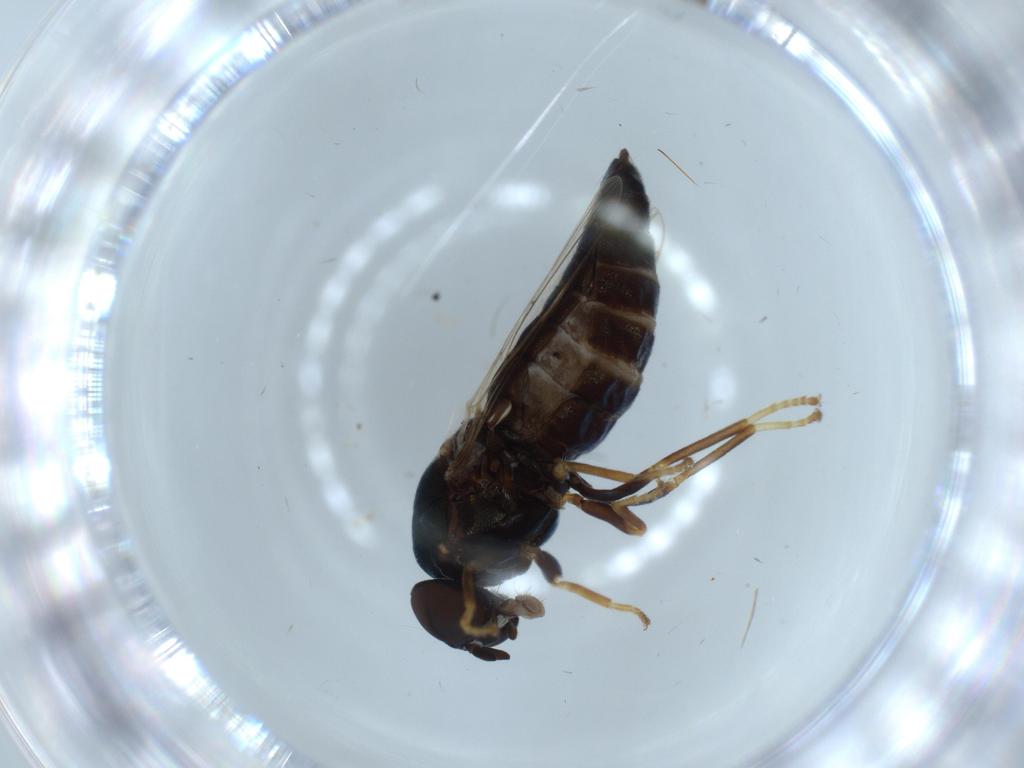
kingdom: Animalia
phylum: Arthropoda
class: Insecta
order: Diptera
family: Scenopinidae
